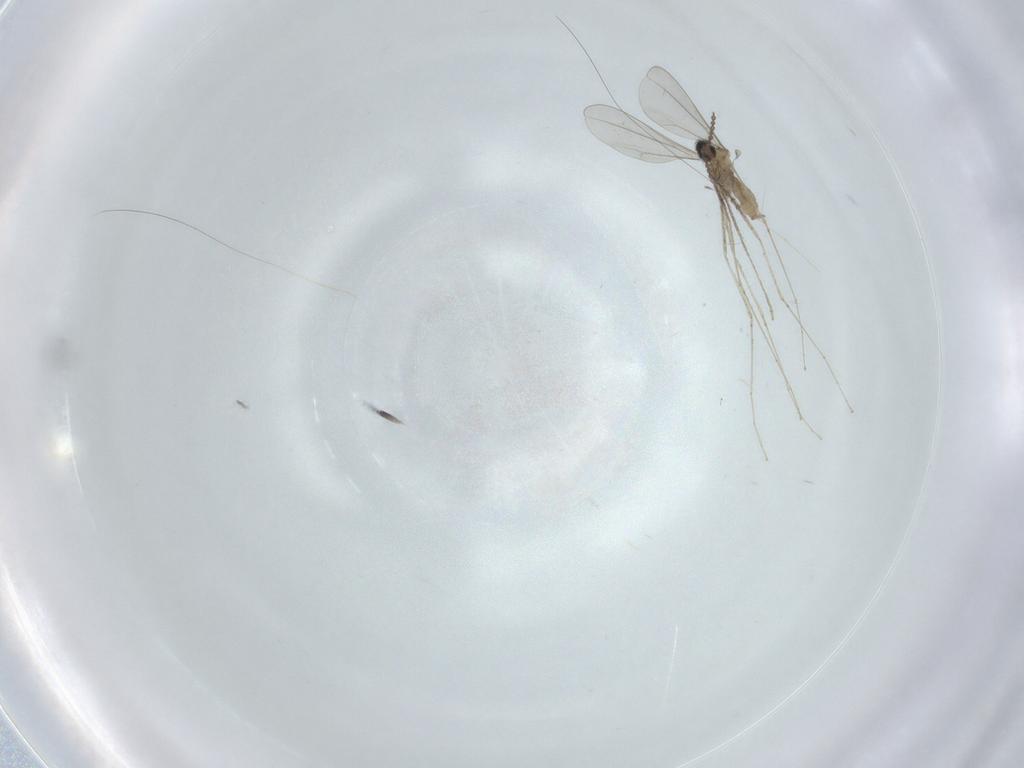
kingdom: Animalia
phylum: Arthropoda
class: Insecta
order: Diptera
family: Cecidomyiidae
